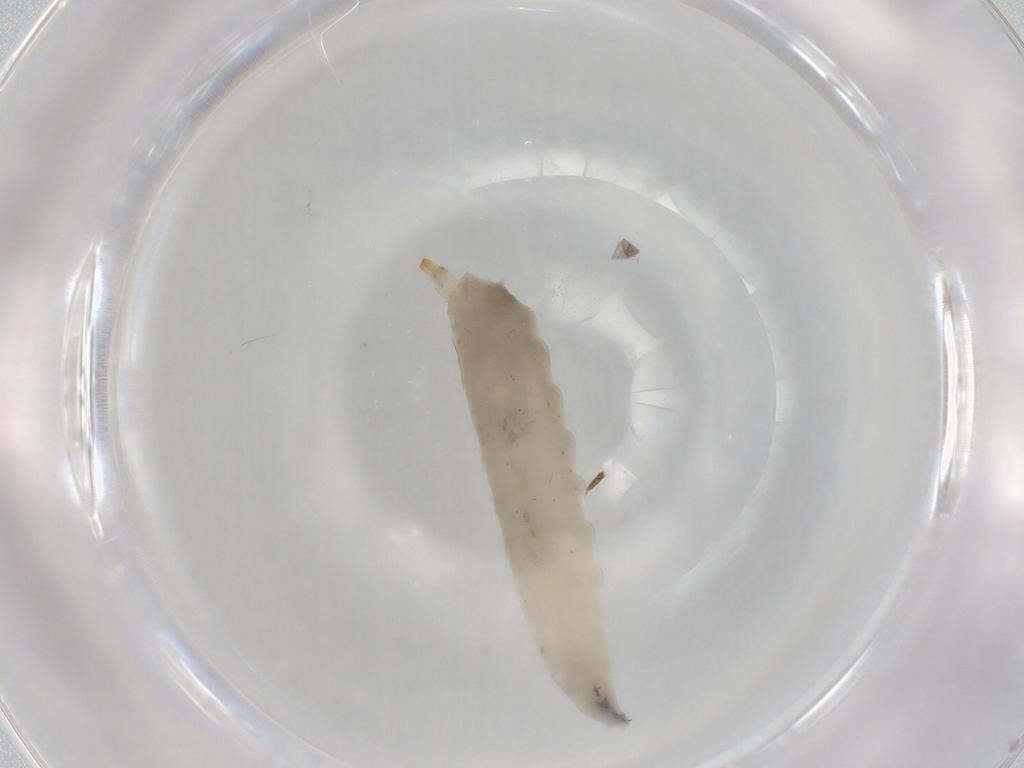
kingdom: Animalia
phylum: Arthropoda
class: Insecta
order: Diptera
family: Drosophilidae
